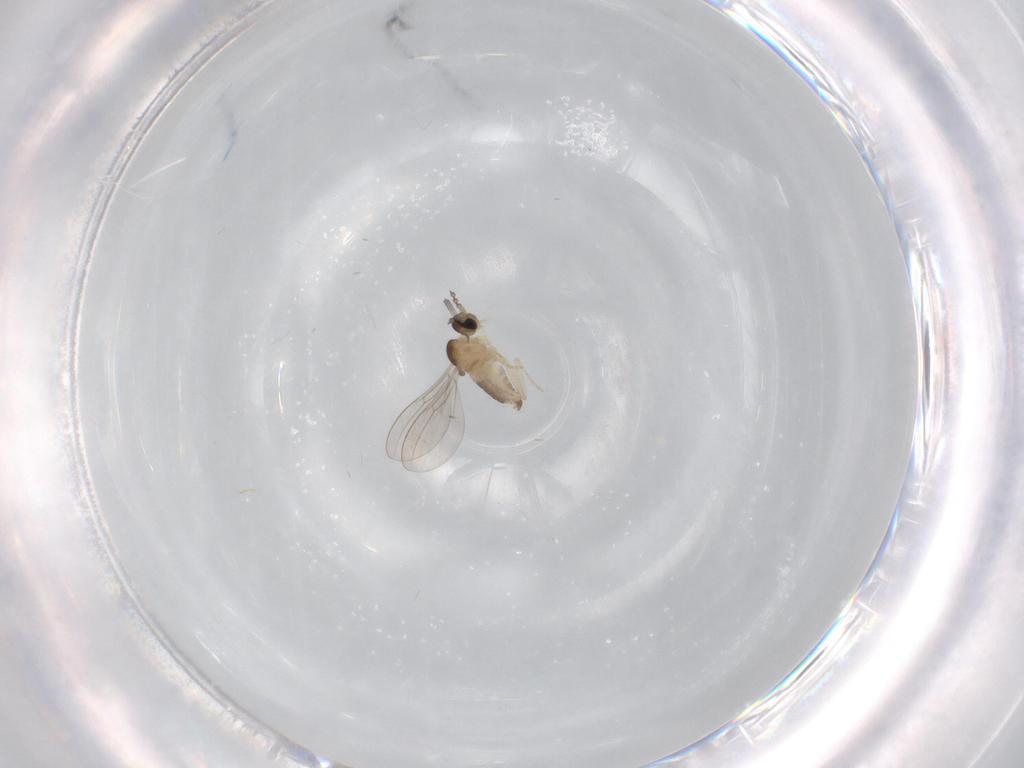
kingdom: Animalia
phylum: Arthropoda
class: Insecta
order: Diptera
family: Cecidomyiidae
